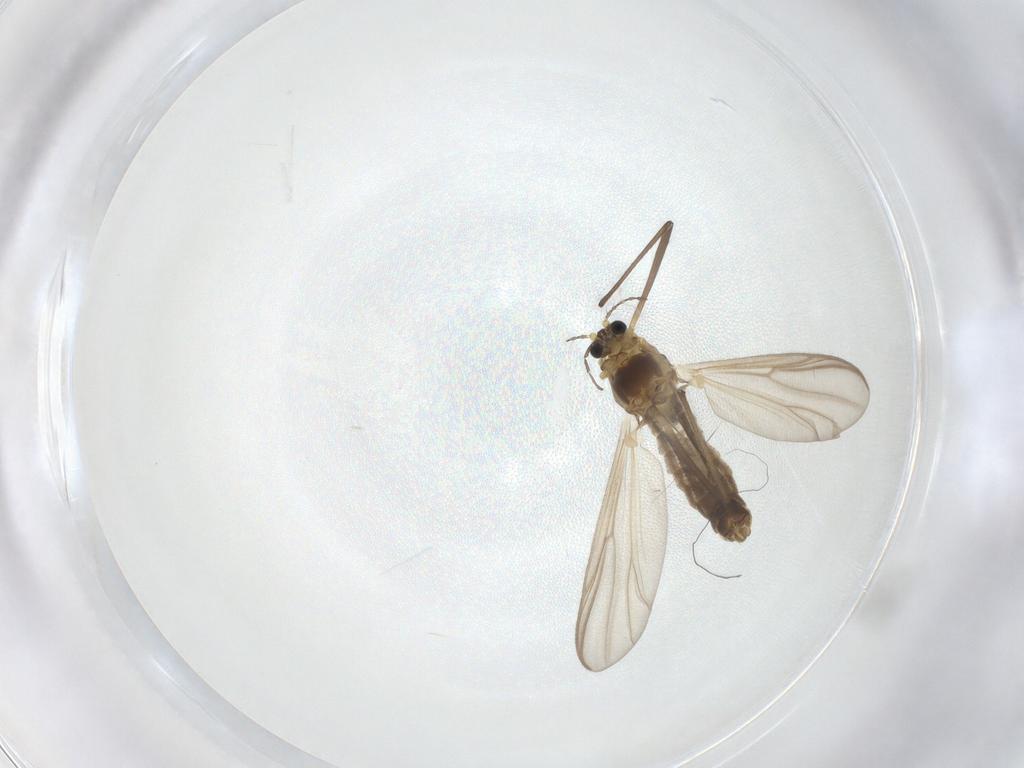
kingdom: Animalia
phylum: Arthropoda
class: Insecta
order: Diptera
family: Chironomidae
